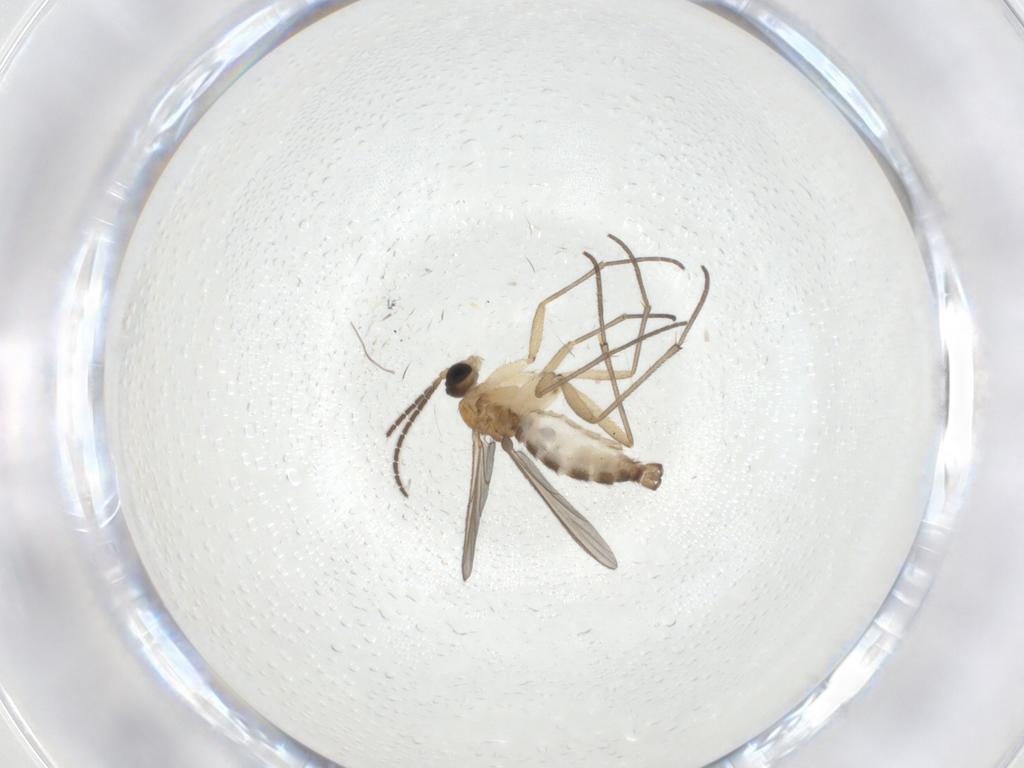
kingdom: Animalia
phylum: Arthropoda
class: Insecta
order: Diptera
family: Sciaridae
